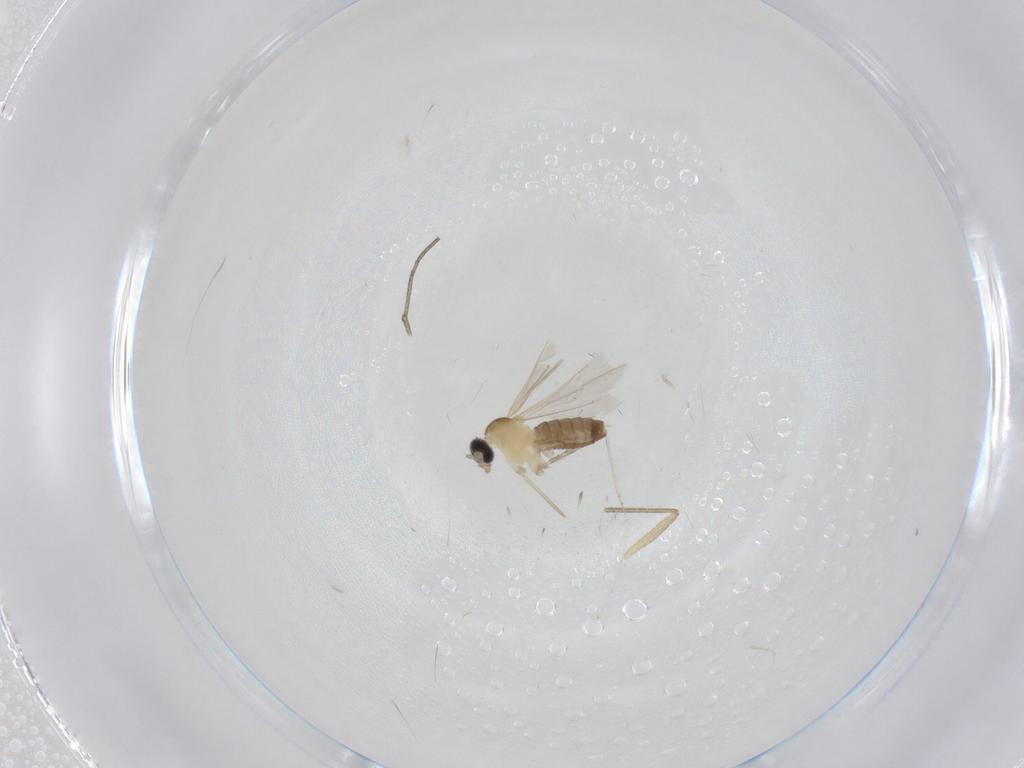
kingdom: Animalia
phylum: Arthropoda
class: Insecta
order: Diptera
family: Cecidomyiidae
